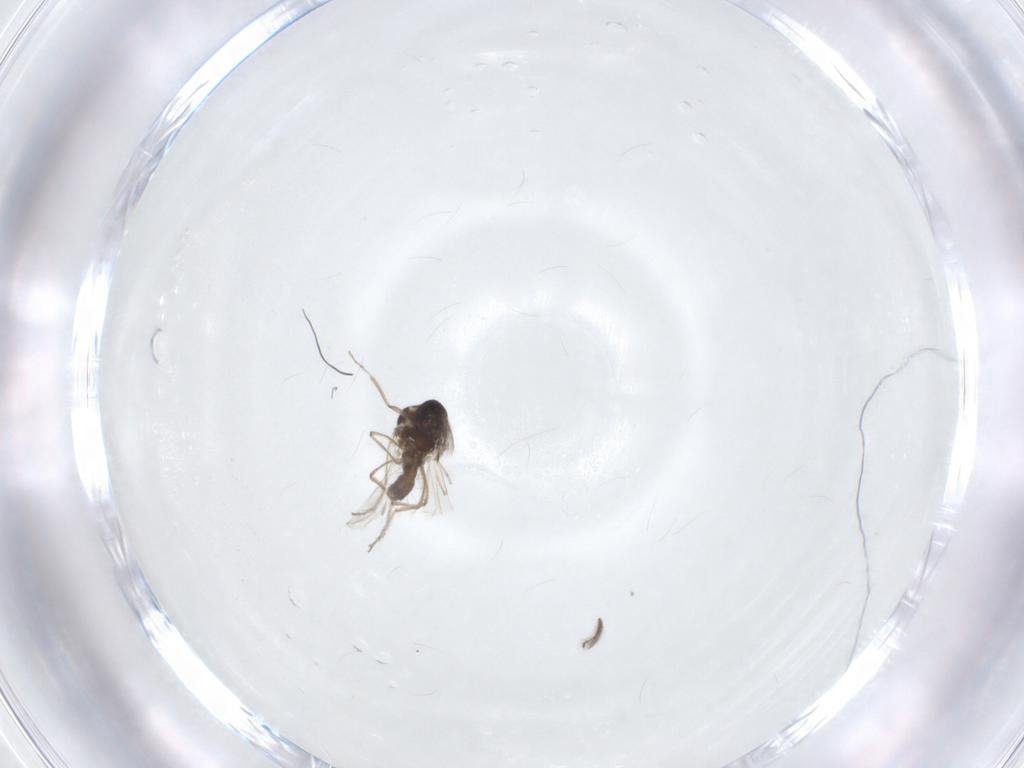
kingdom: Animalia
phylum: Arthropoda
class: Insecta
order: Diptera
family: Ceratopogonidae
